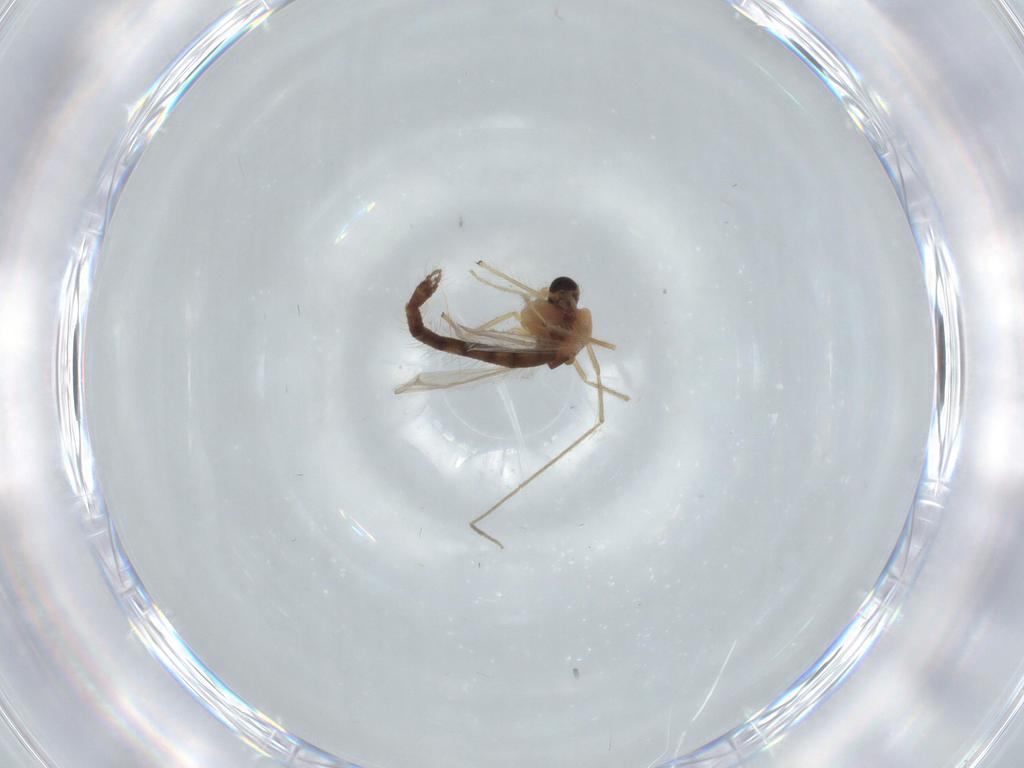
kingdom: Animalia
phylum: Arthropoda
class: Insecta
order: Diptera
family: Chironomidae
